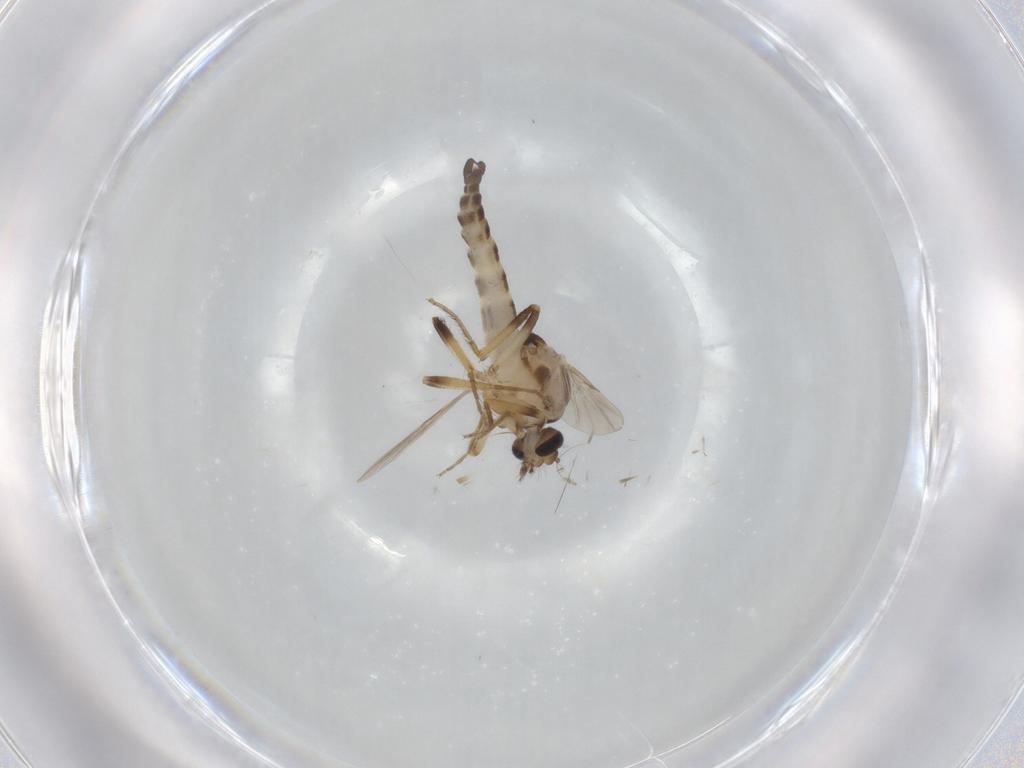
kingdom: Animalia
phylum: Arthropoda
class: Insecta
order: Diptera
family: Ceratopogonidae
